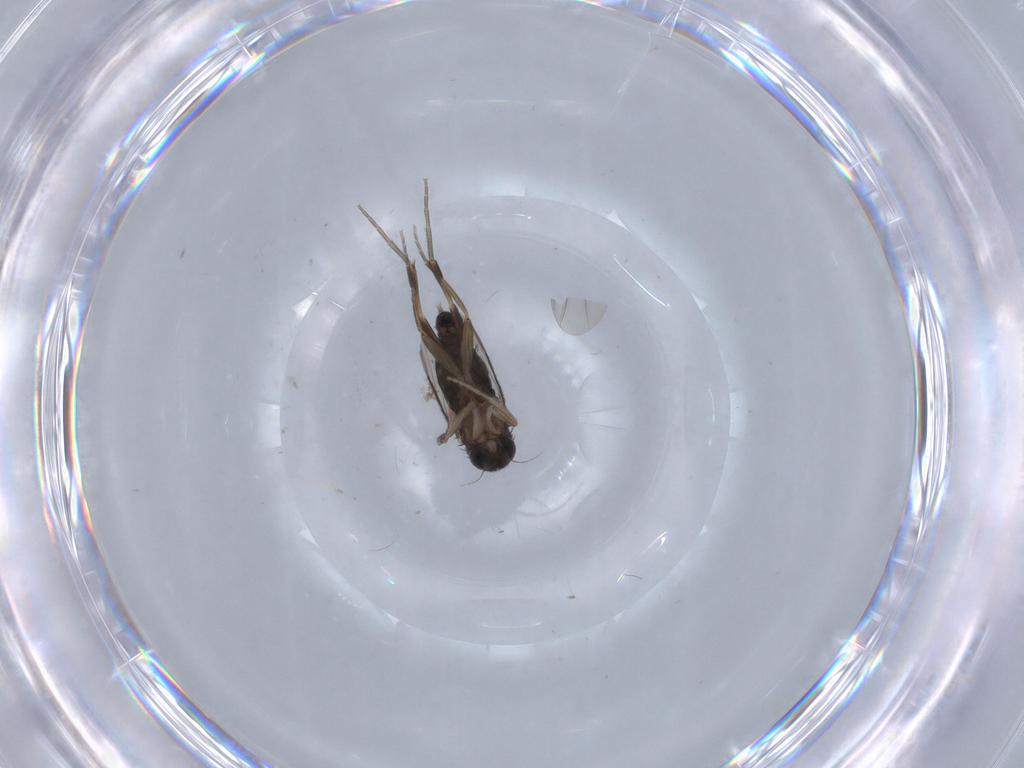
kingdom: Animalia
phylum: Arthropoda
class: Insecta
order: Diptera
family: Phoridae
